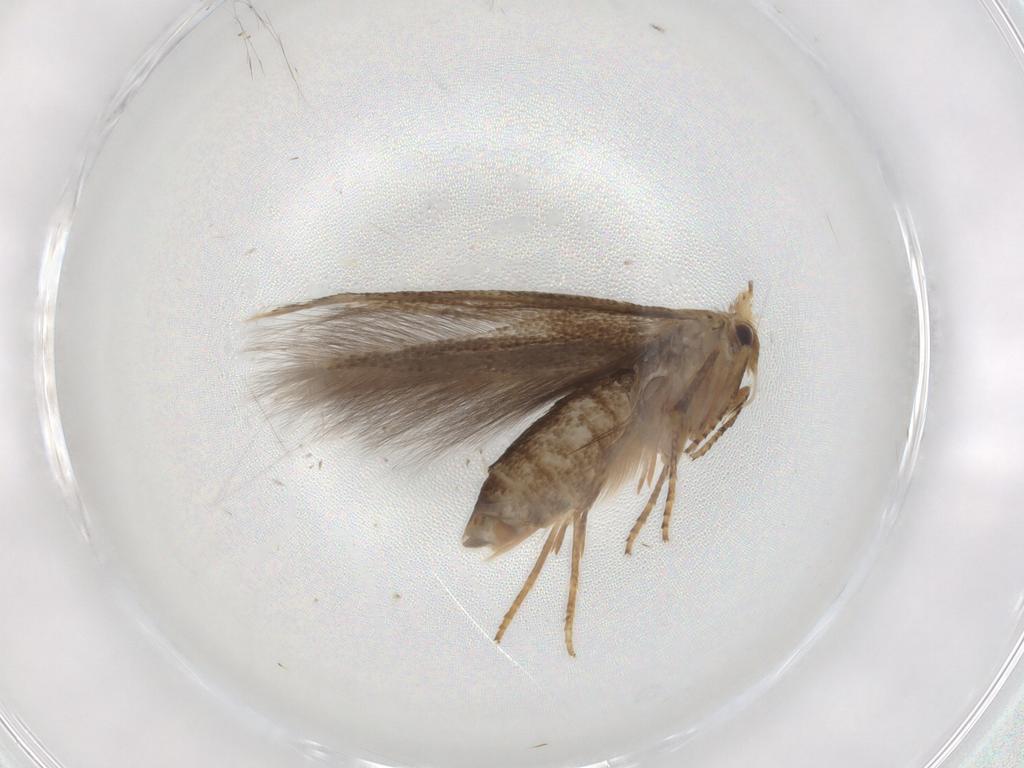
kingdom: Animalia
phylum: Arthropoda
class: Insecta
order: Lepidoptera
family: Bucculatricidae
